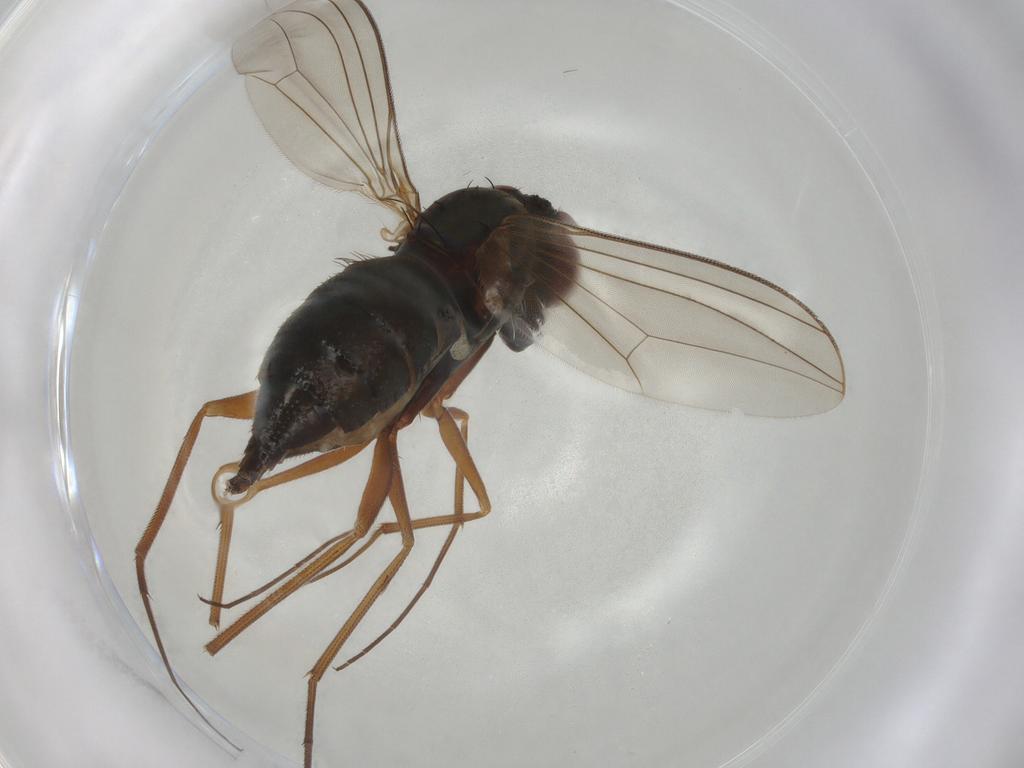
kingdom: Animalia
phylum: Arthropoda
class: Insecta
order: Diptera
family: Dolichopodidae
